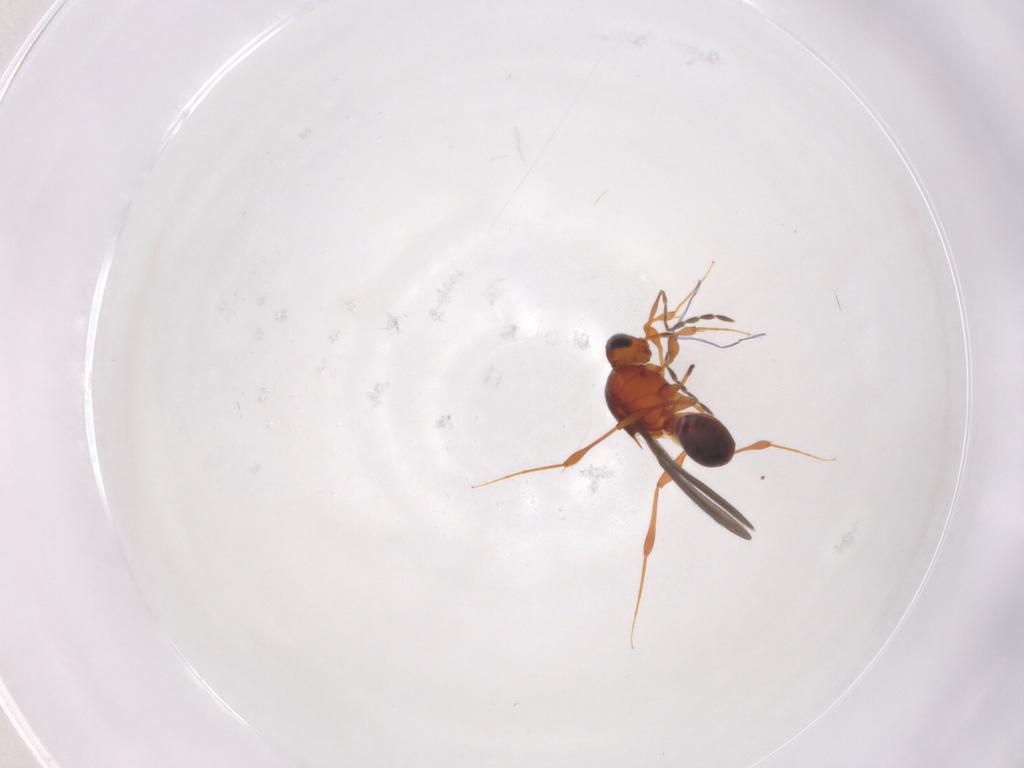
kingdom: Animalia
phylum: Arthropoda
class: Insecta
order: Hymenoptera
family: Platygastridae
